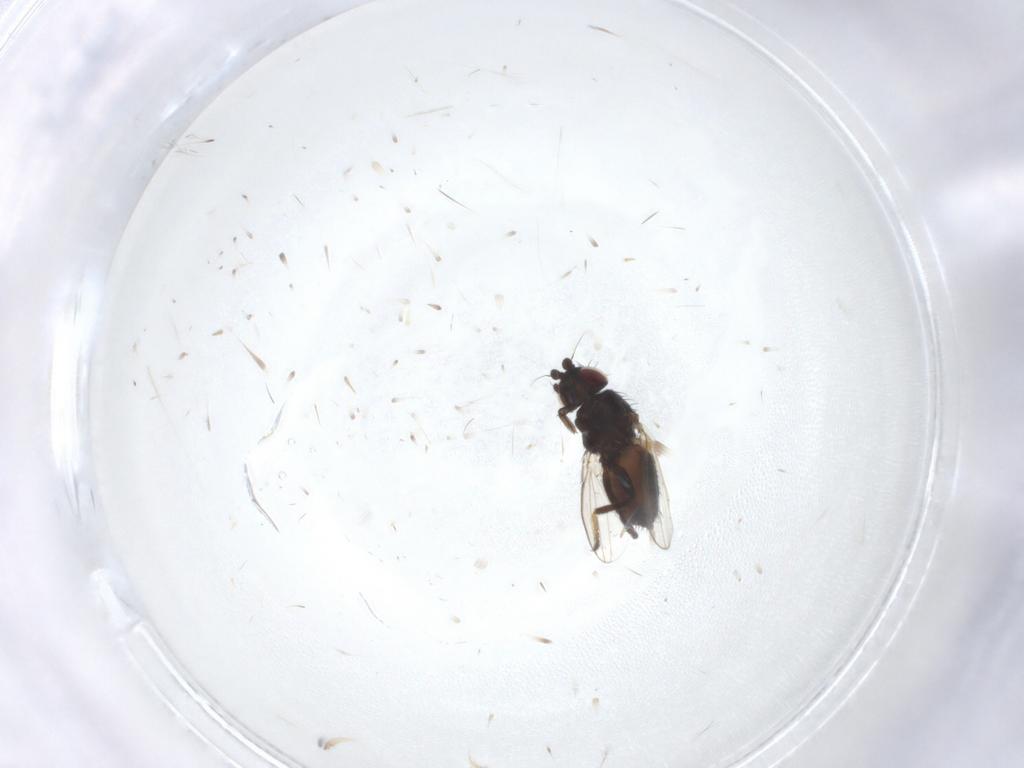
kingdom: Animalia
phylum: Arthropoda
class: Insecta
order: Diptera
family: Milichiidae
